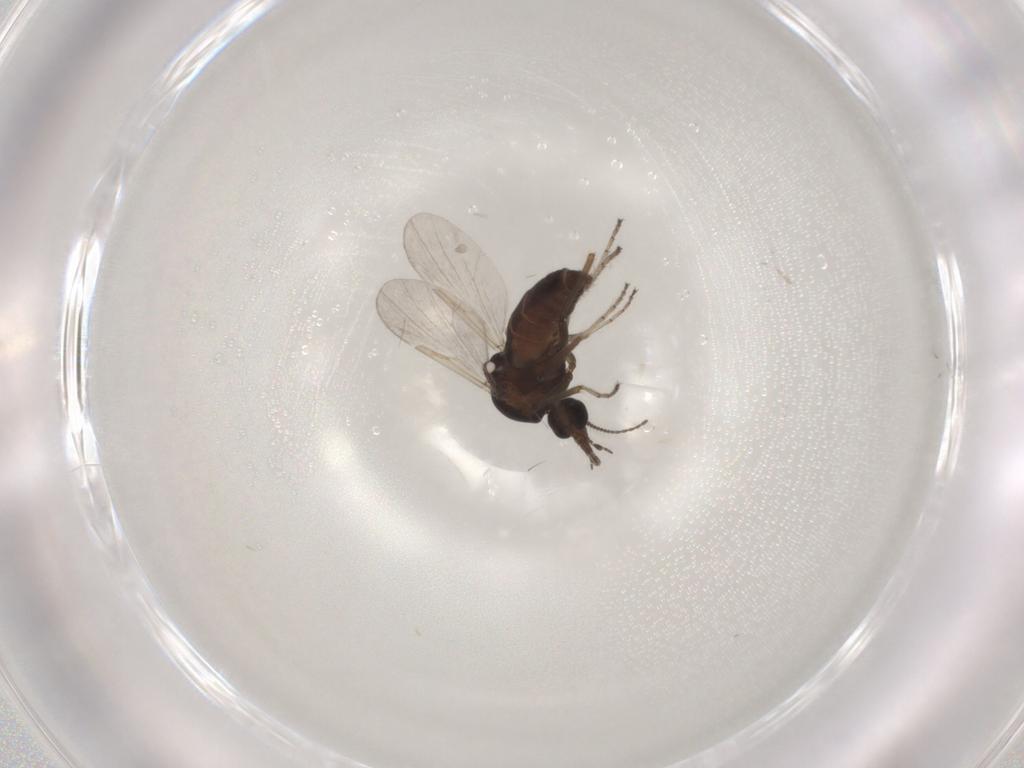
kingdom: Animalia
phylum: Arthropoda
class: Insecta
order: Diptera
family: Ceratopogonidae
